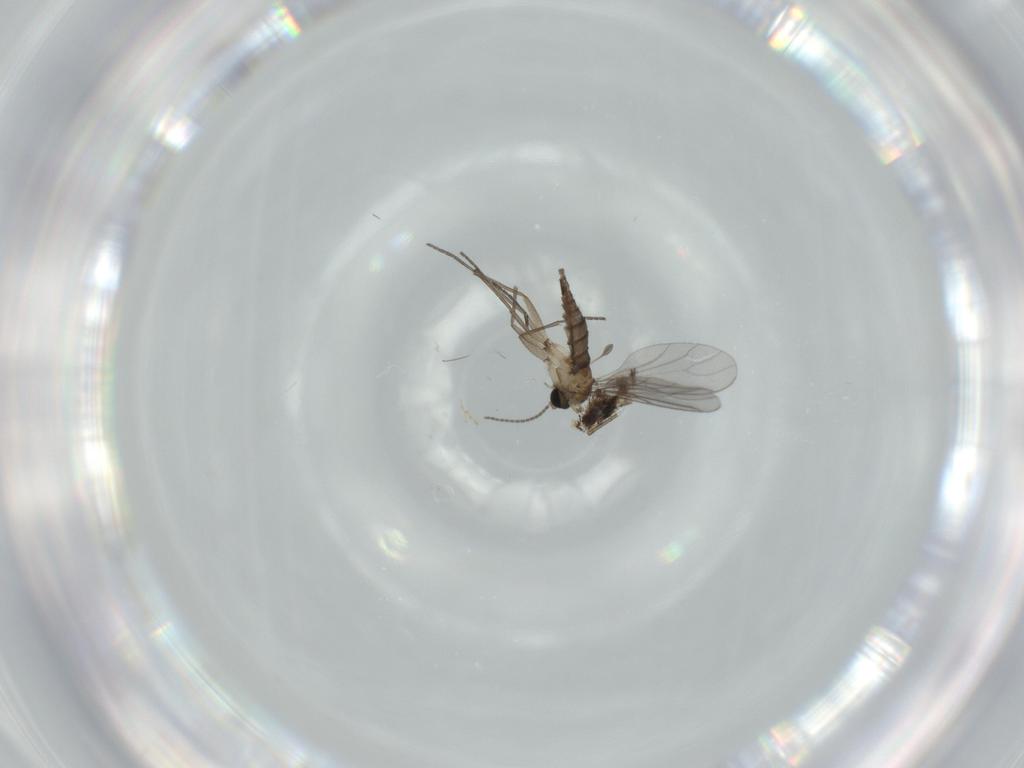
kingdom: Animalia
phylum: Arthropoda
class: Insecta
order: Diptera
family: Sciaridae
